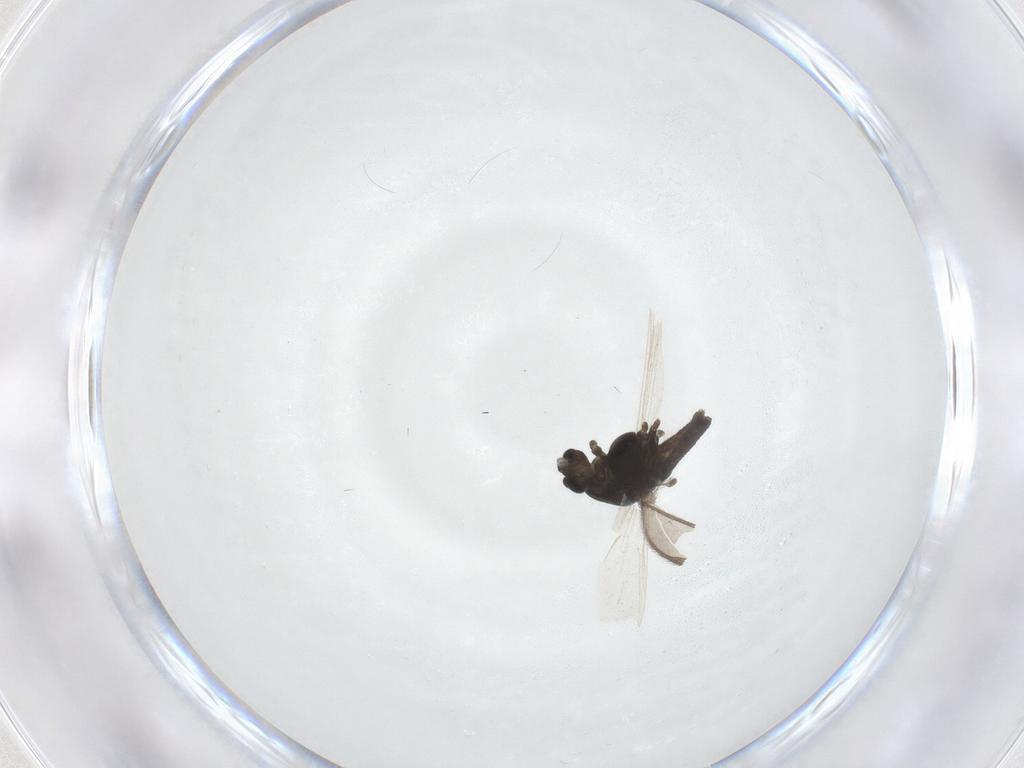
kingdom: Animalia
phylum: Arthropoda
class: Insecta
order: Diptera
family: Chironomidae
